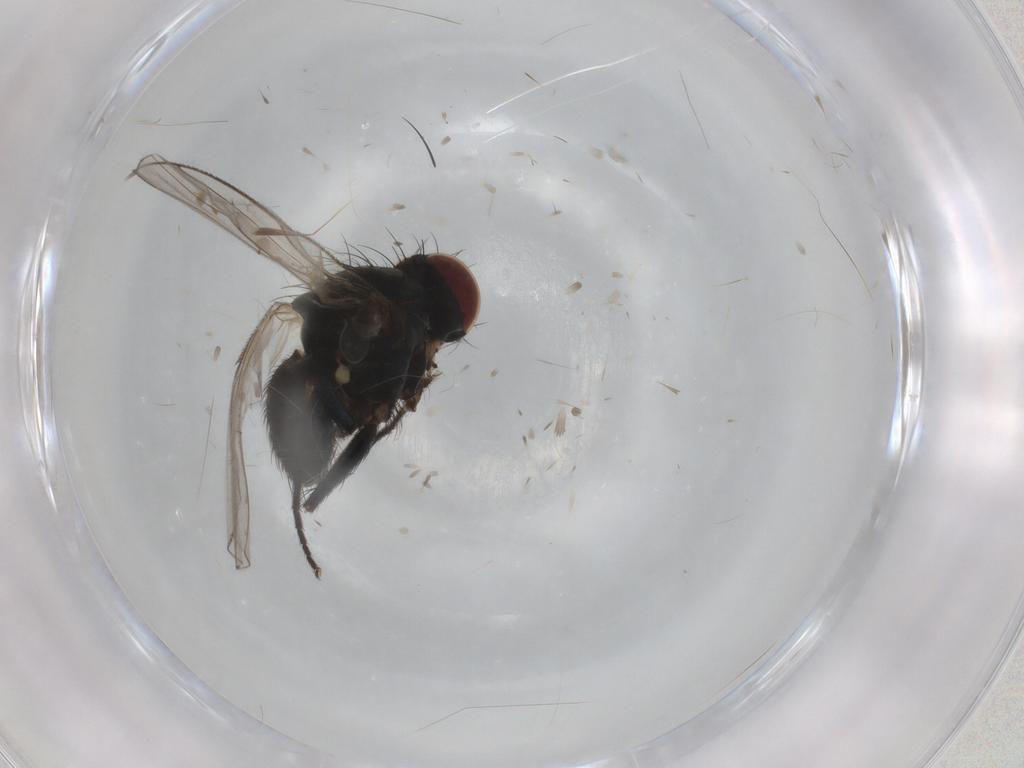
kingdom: Animalia
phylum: Arthropoda
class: Insecta
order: Diptera
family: Muscidae
